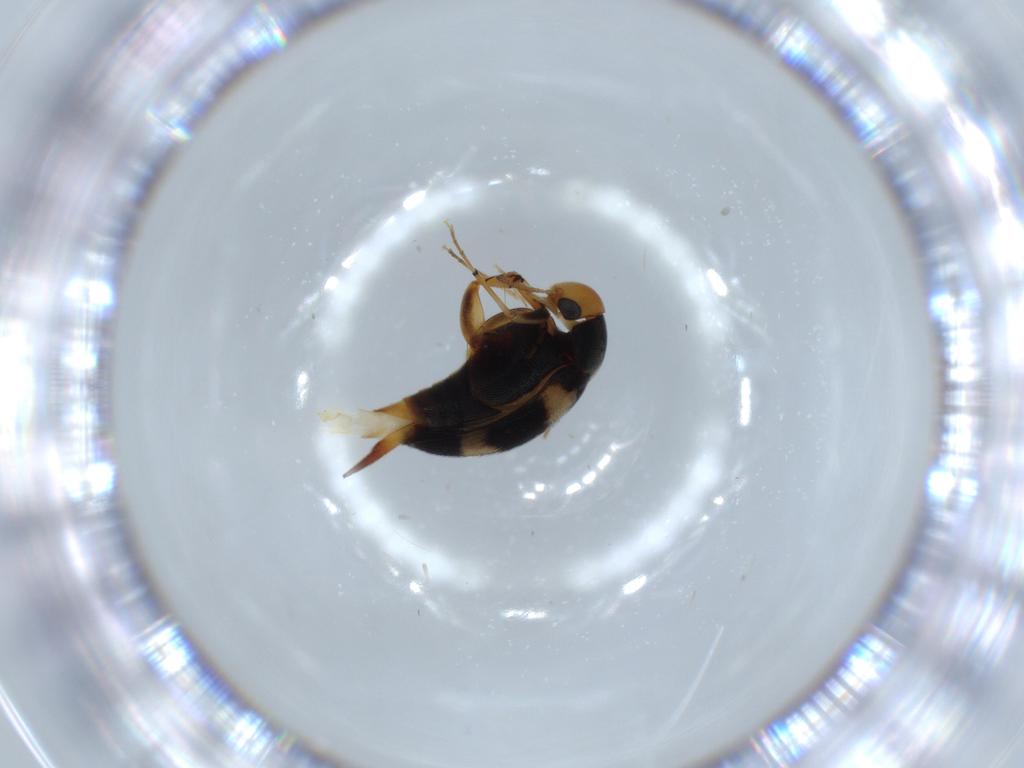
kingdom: Animalia
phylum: Arthropoda
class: Insecta
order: Coleoptera
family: Mordellidae
